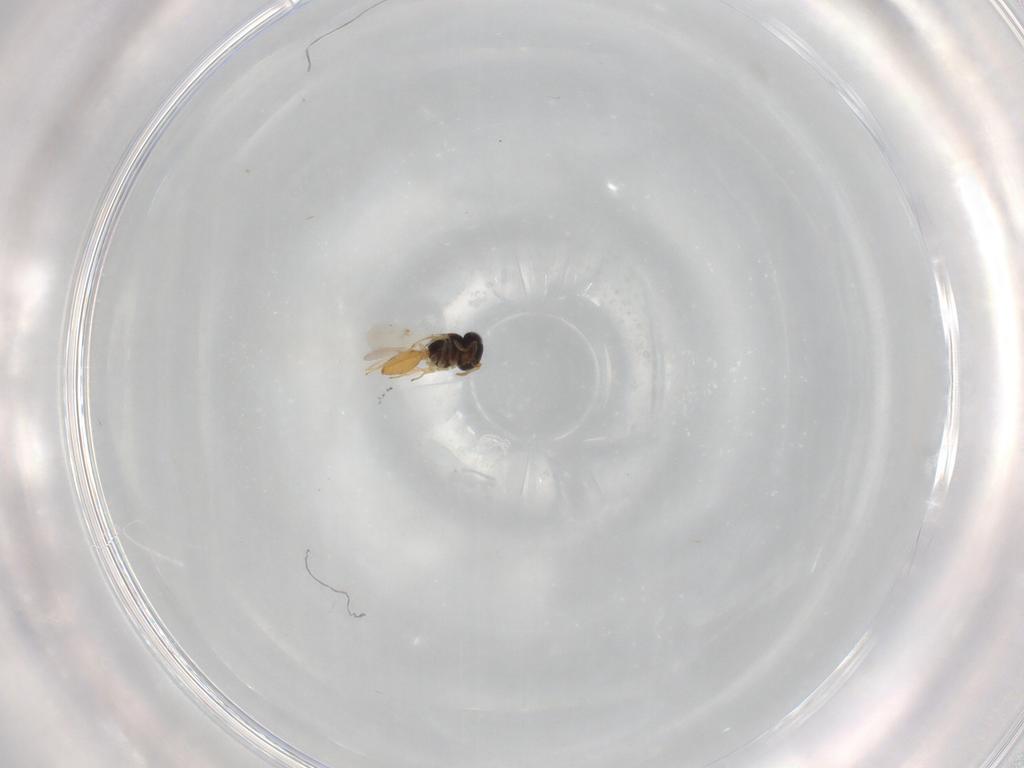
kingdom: Animalia
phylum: Arthropoda
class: Insecta
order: Hymenoptera
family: Scelionidae
